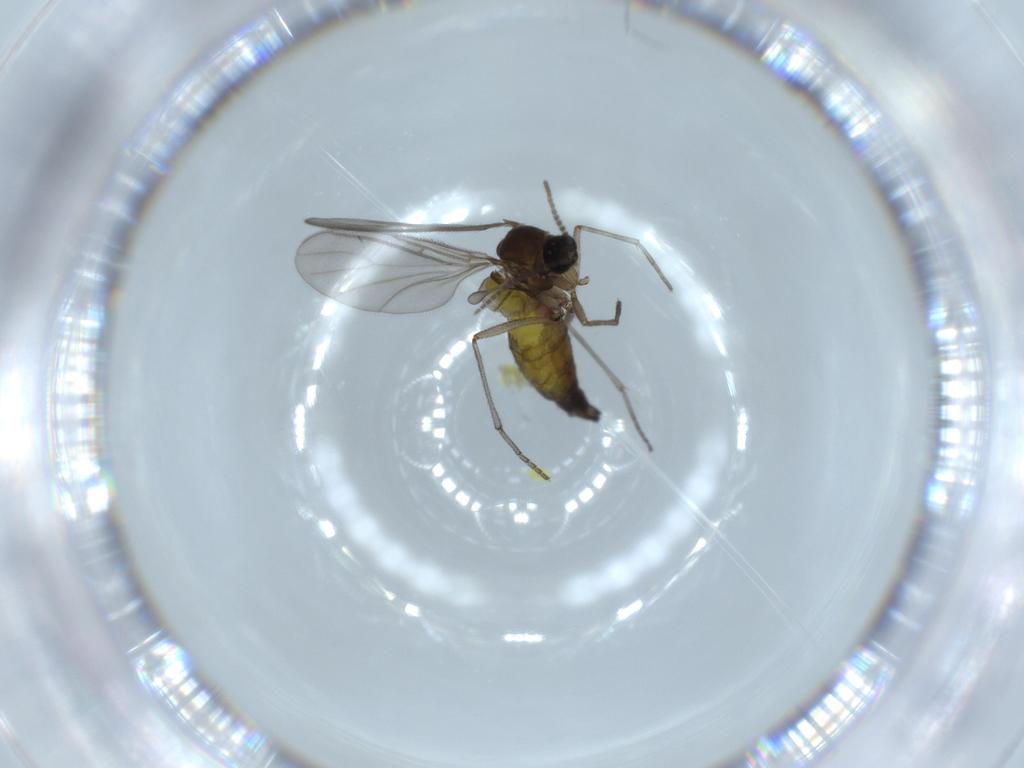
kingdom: Animalia
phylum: Arthropoda
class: Insecta
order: Diptera
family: Sciaridae
